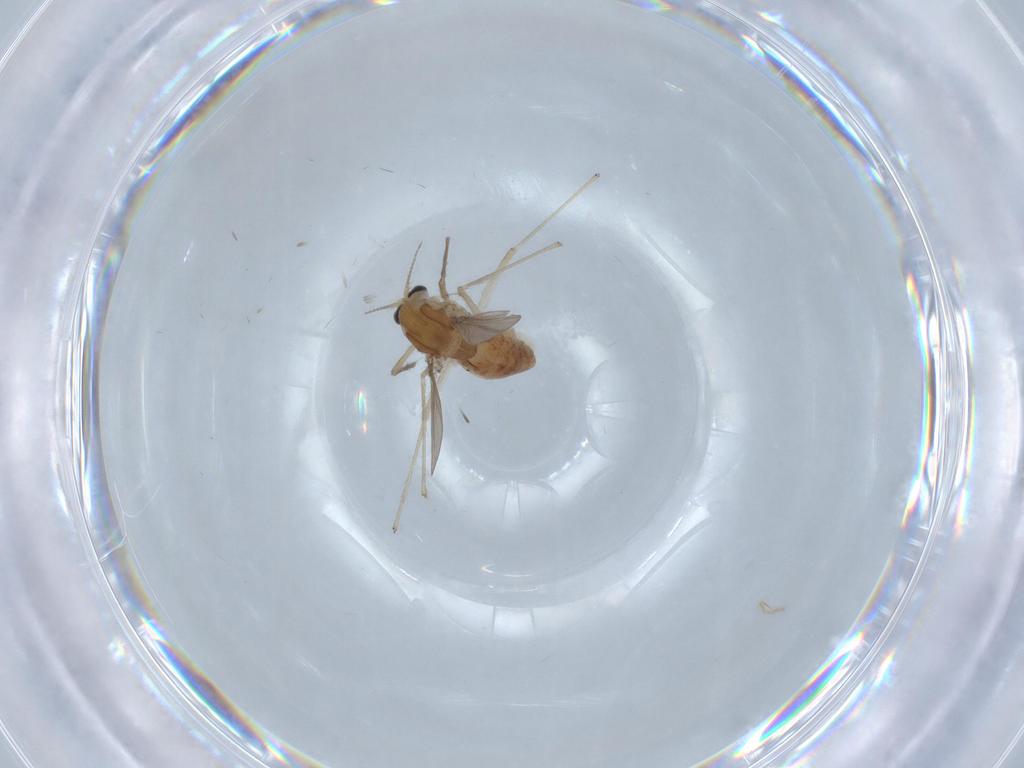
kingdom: Animalia
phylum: Arthropoda
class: Insecta
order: Diptera
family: Chironomidae
